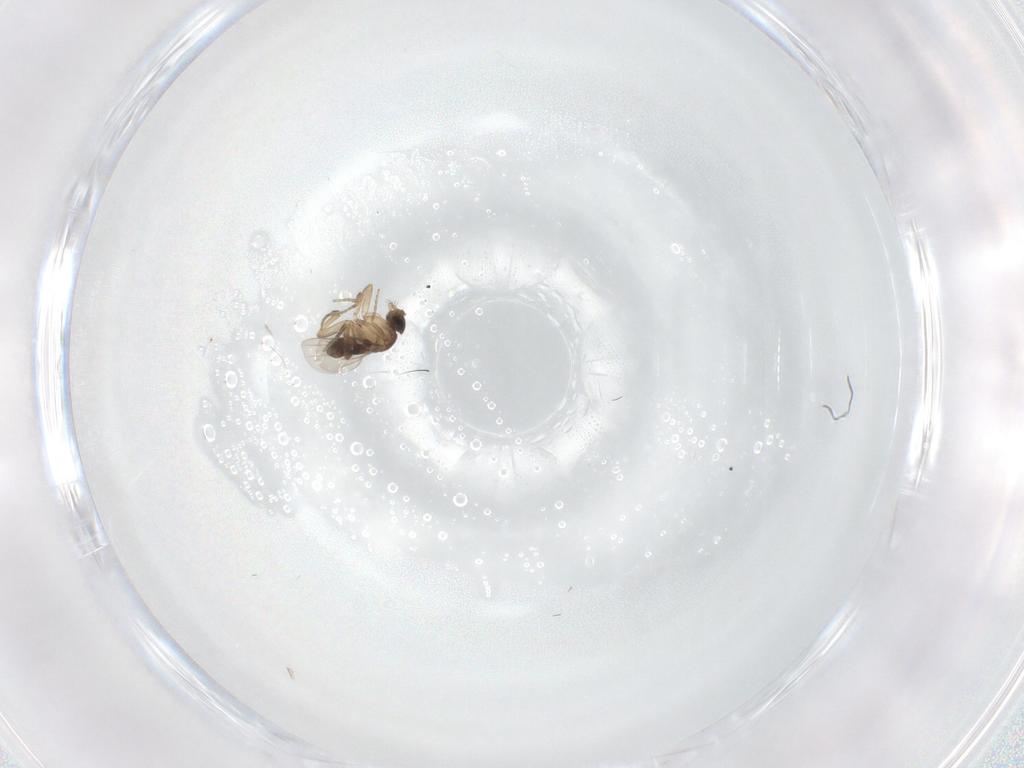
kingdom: Animalia
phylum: Arthropoda
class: Insecta
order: Diptera
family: Phoridae
